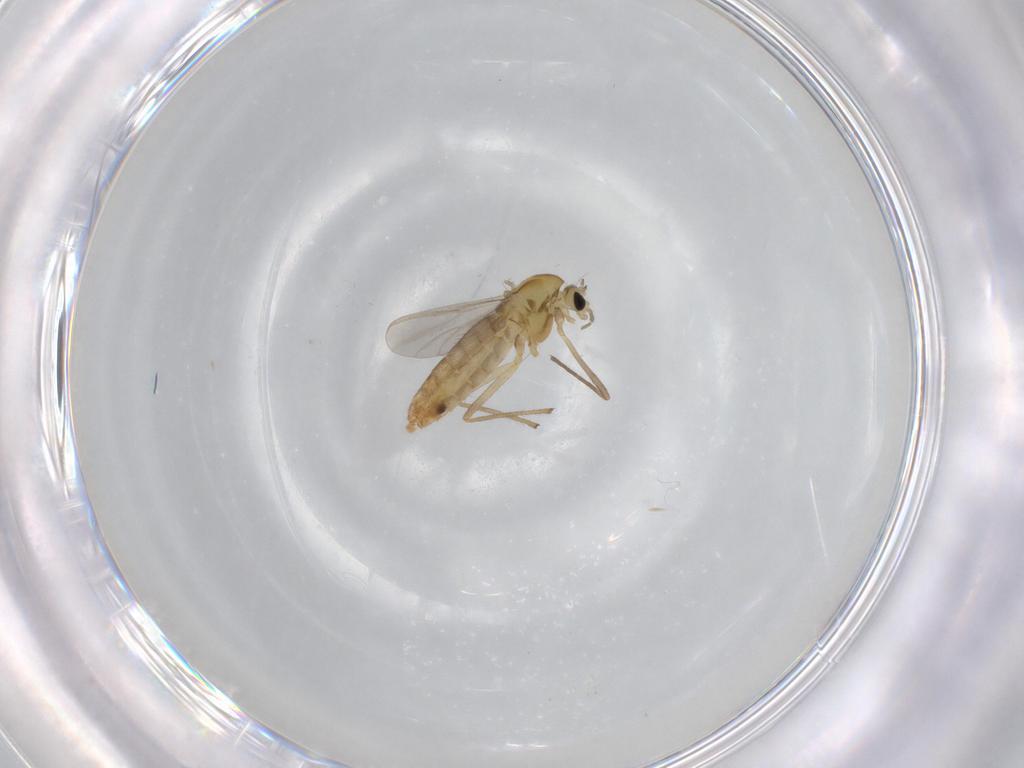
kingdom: Animalia
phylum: Arthropoda
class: Insecta
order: Diptera
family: Chironomidae
